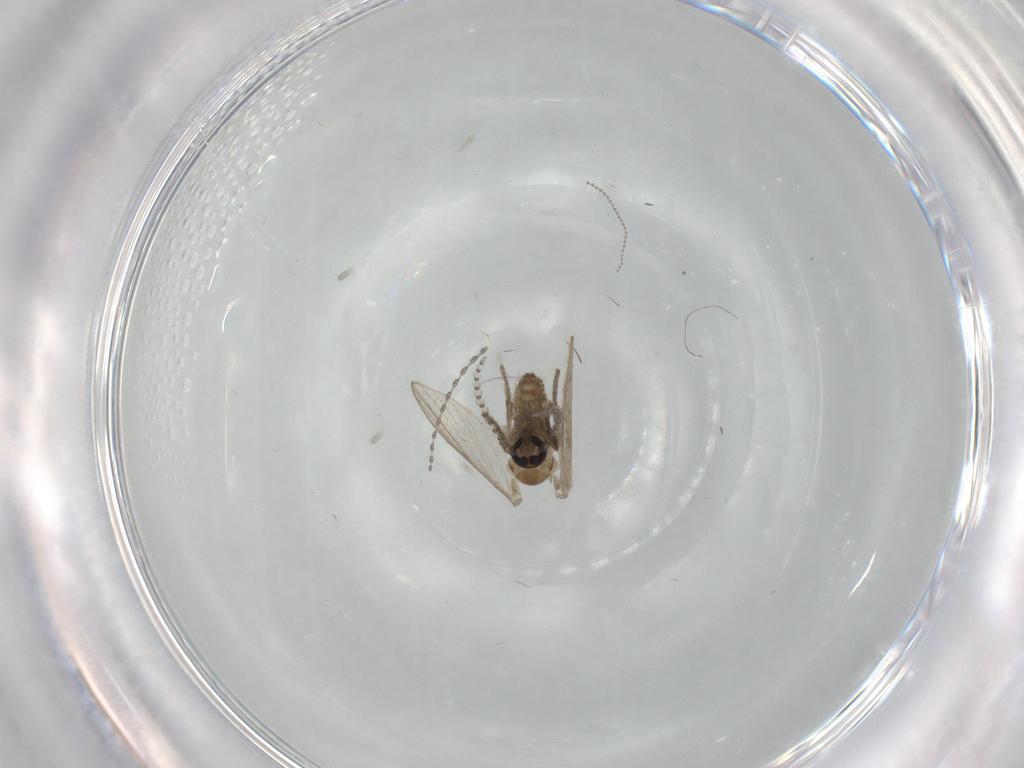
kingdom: Animalia
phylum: Arthropoda
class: Insecta
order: Diptera
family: Psychodidae
